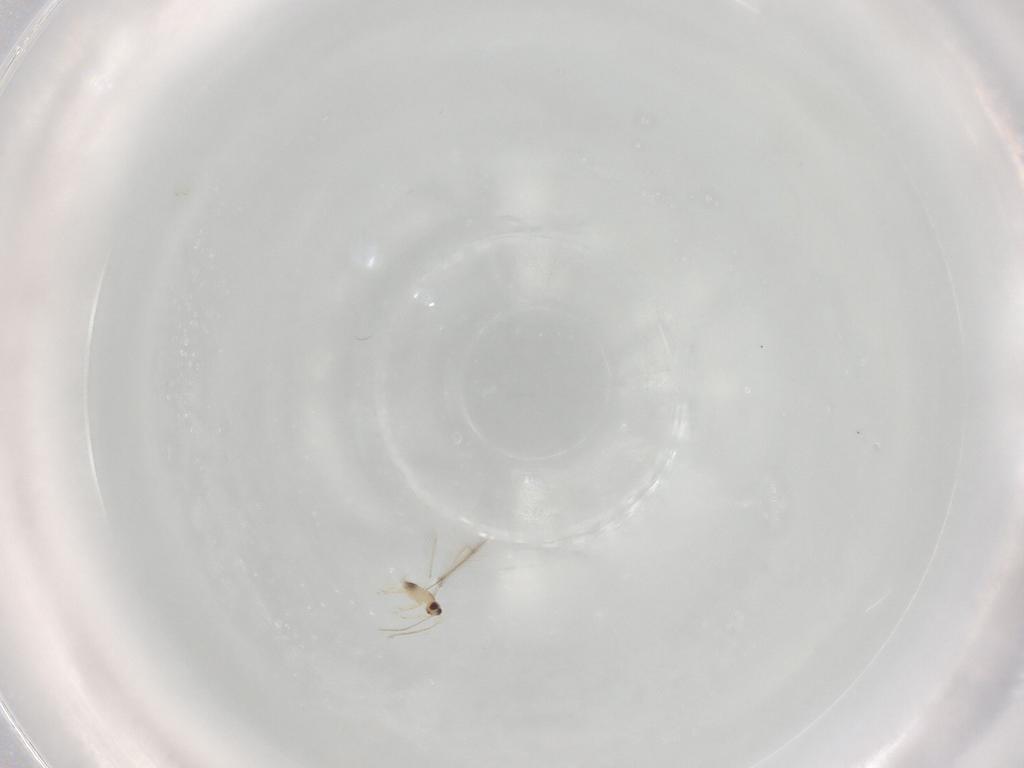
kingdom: Animalia
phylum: Arthropoda
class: Insecta
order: Hymenoptera
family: Mymaridae
